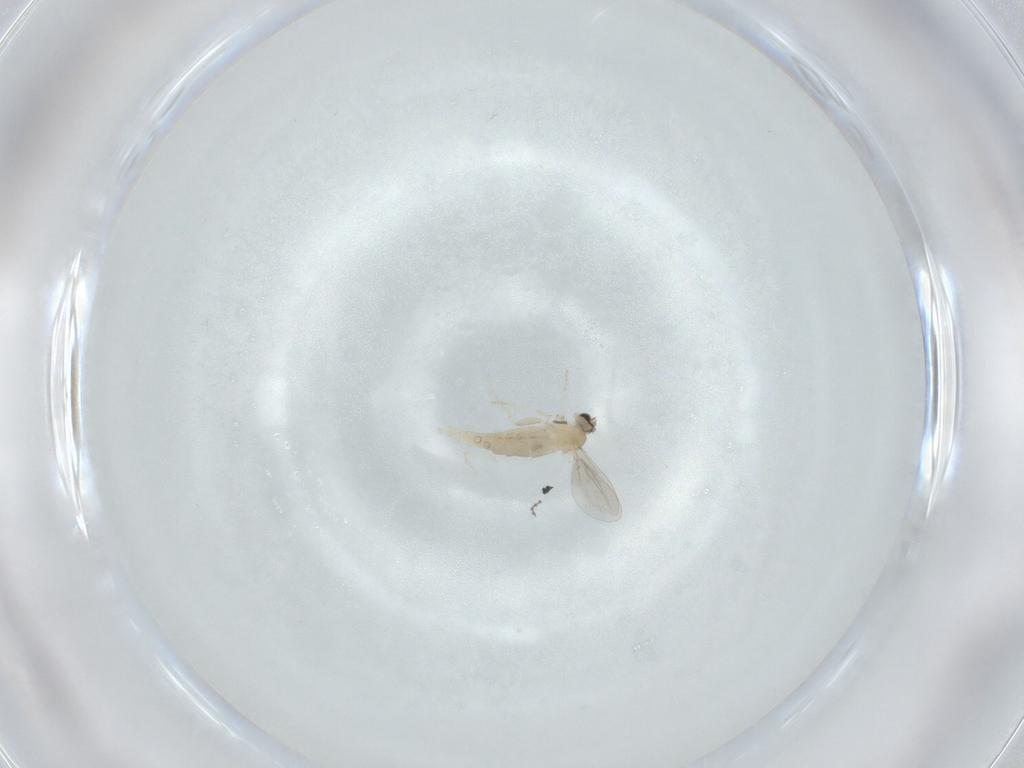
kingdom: Animalia
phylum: Arthropoda
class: Insecta
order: Diptera
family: Cecidomyiidae
